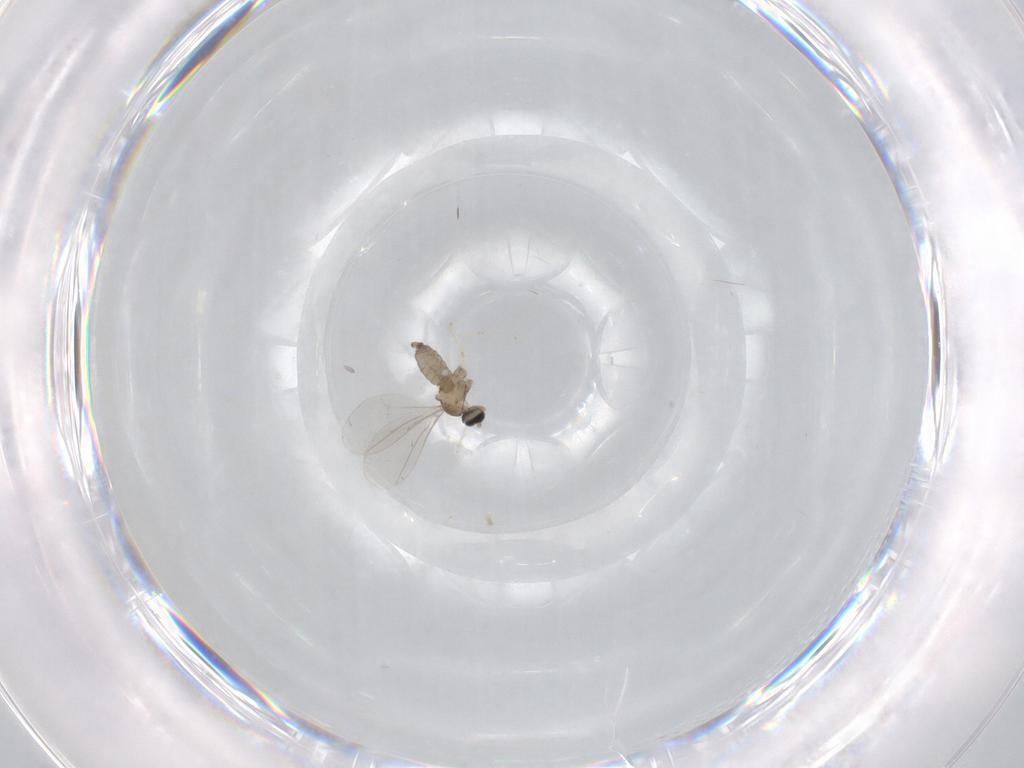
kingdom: Animalia
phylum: Arthropoda
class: Insecta
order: Diptera
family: Cecidomyiidae
